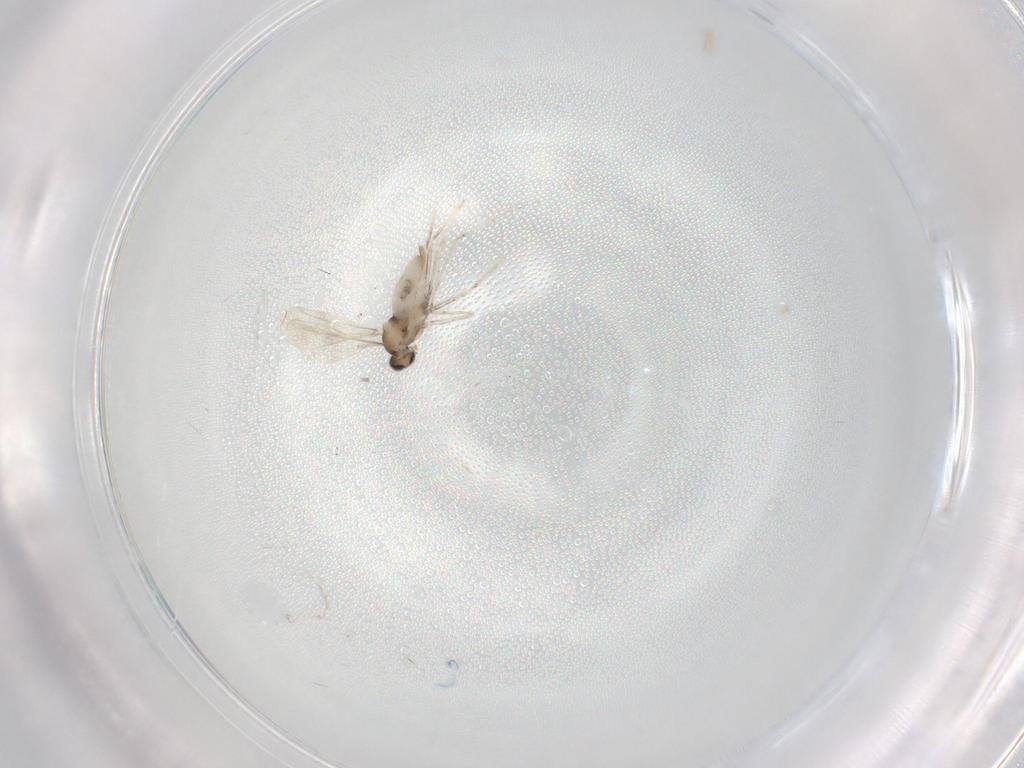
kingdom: Animalia
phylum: Arthropoda
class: Insecta
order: Diptera
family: Cecidomyiidae
